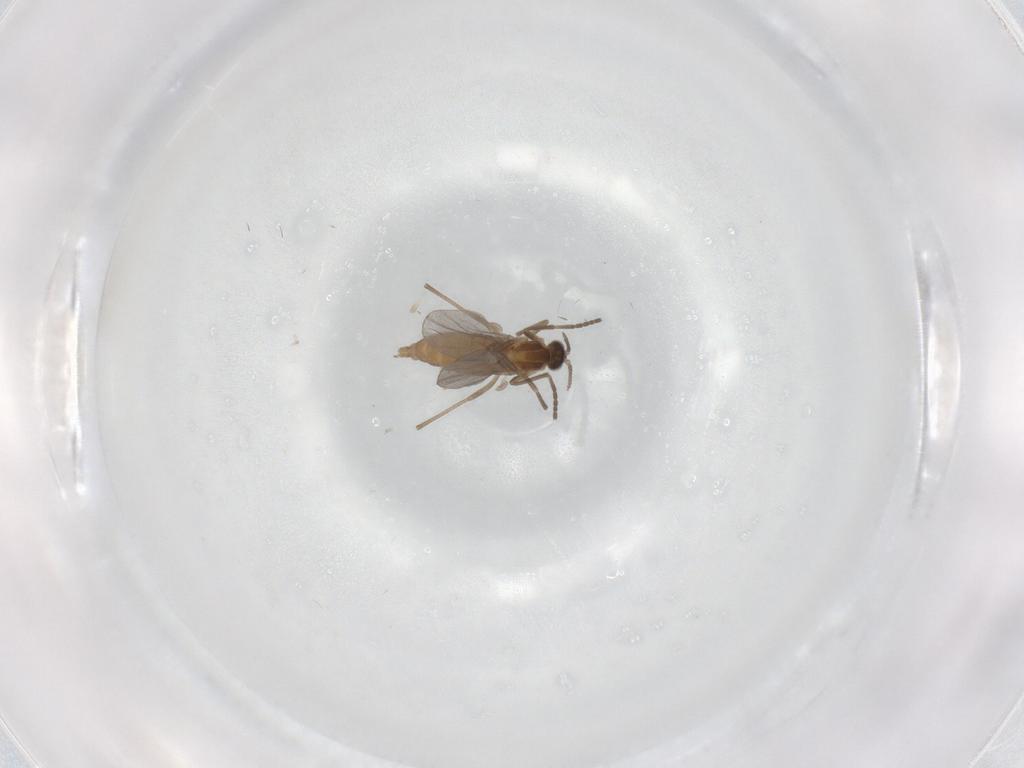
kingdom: Animalia
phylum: Arthropoda
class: Insecta
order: Diptera
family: Cecidomyiidae
